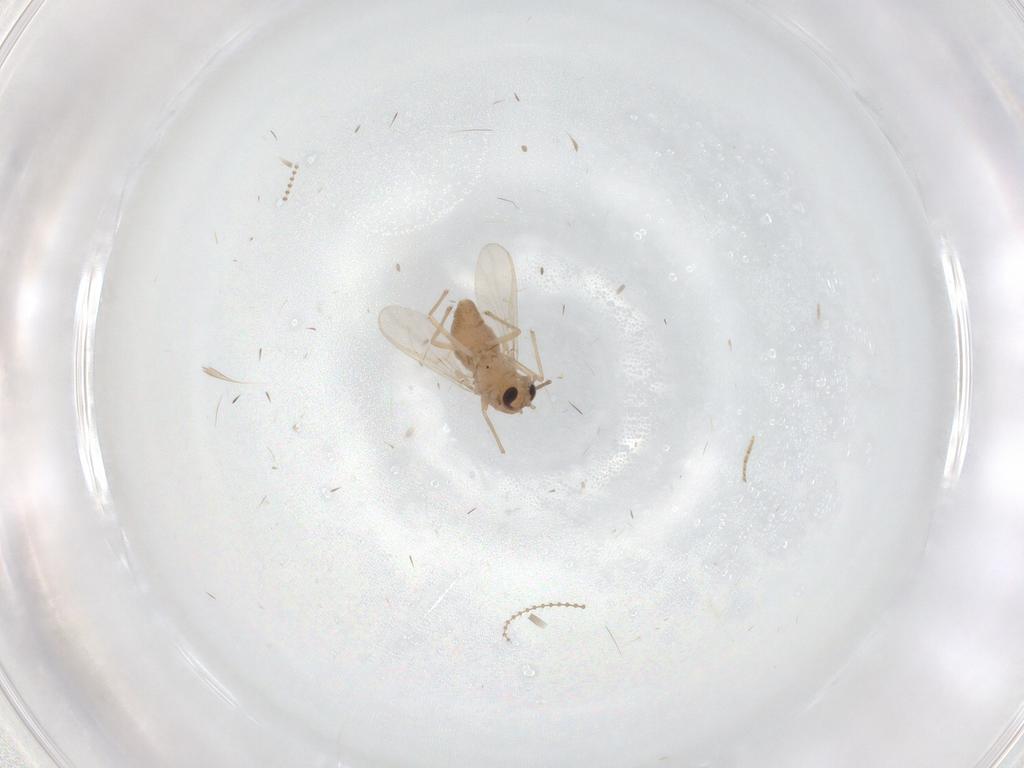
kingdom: Animalia
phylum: Arthropoda
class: Insecta
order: Diptera
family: Chironomidae
